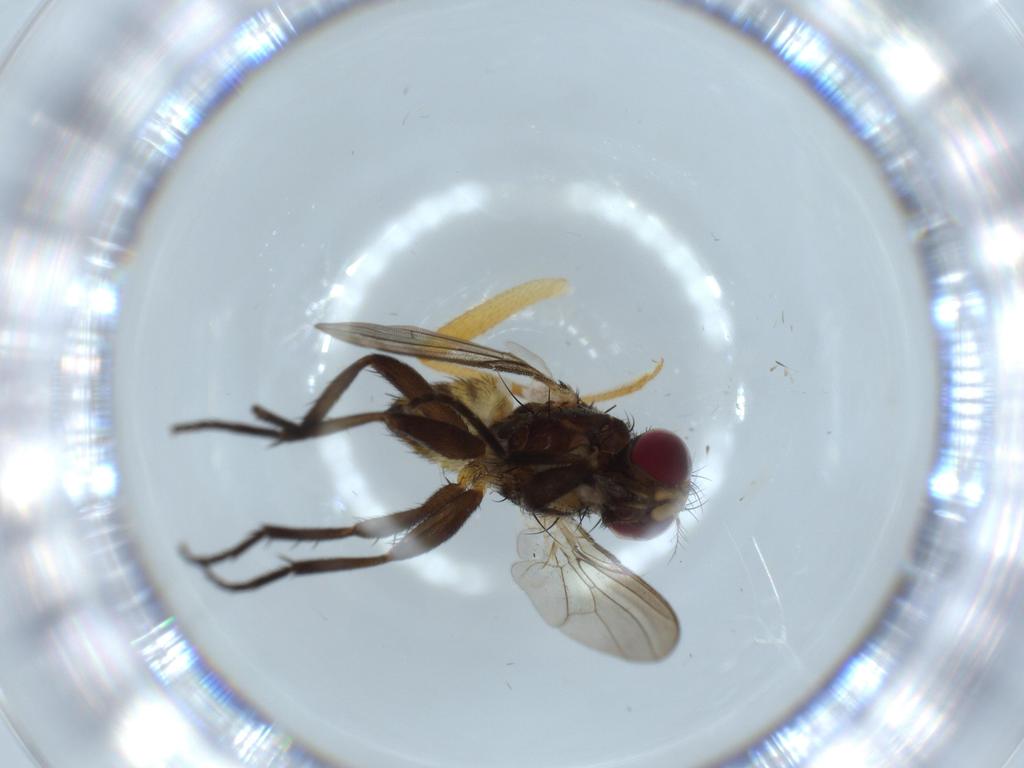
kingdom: Animalia
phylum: Arthropoda
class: Insecta
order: Diptera
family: Anthomyiidae
